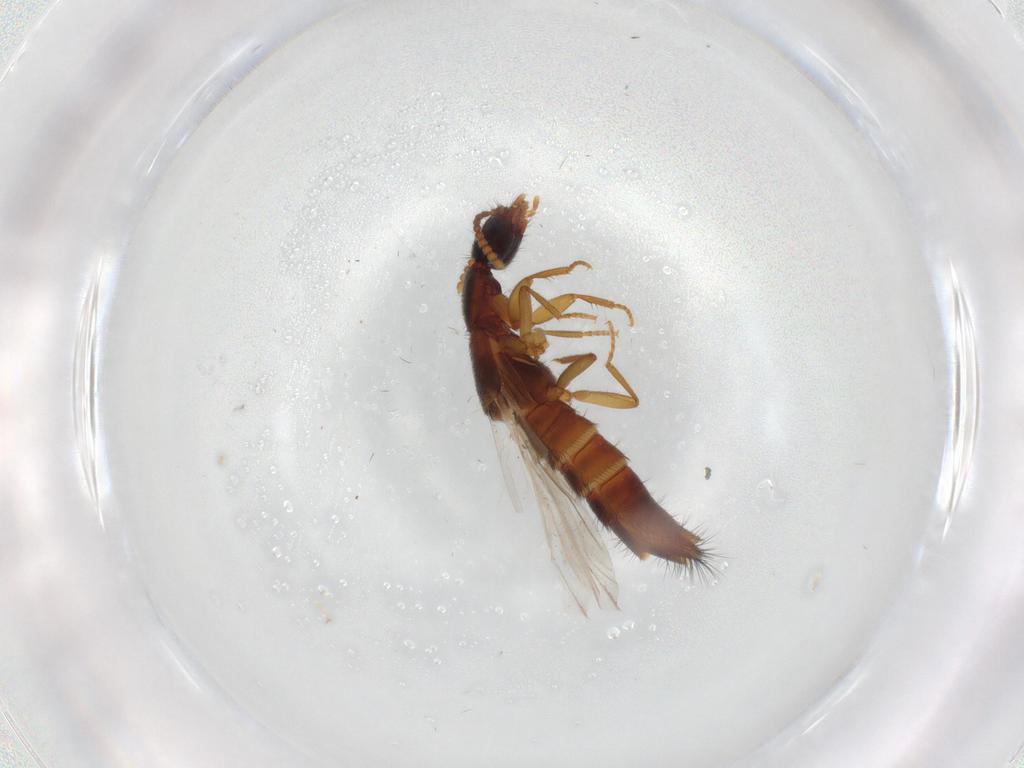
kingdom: Animalia
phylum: Arthropoda
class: Insecta
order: Coleoptera
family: Staphylinidae
